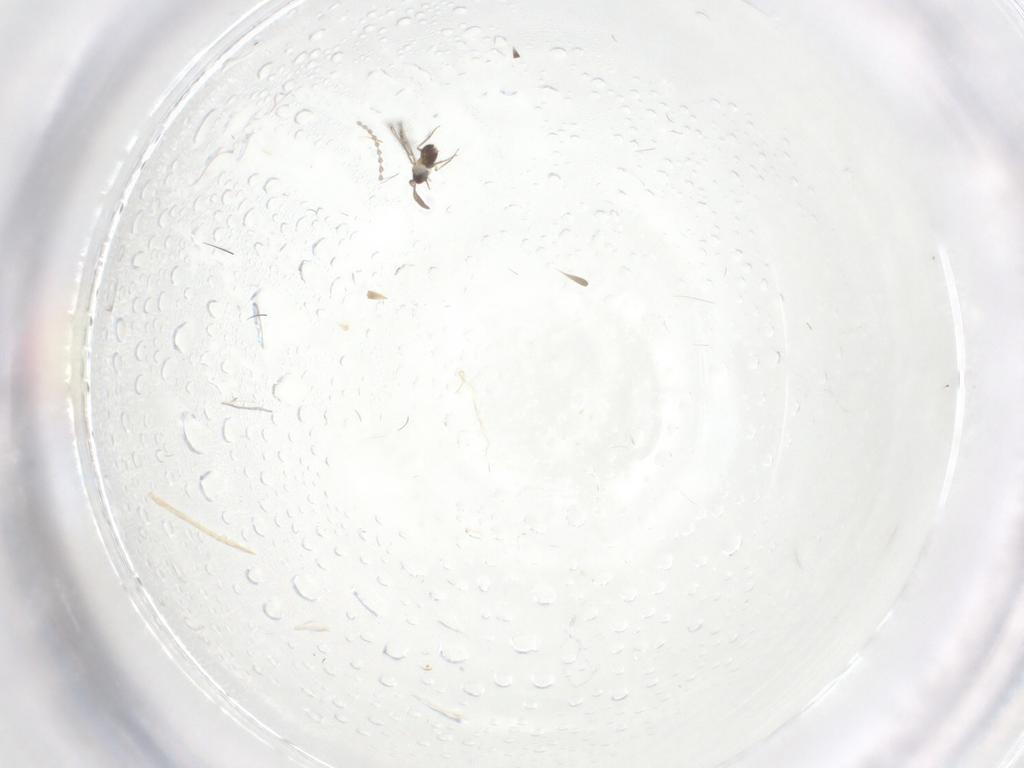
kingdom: Animalia
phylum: Arthropoda
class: Insecta
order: Diptera
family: Cecidomyiidae
